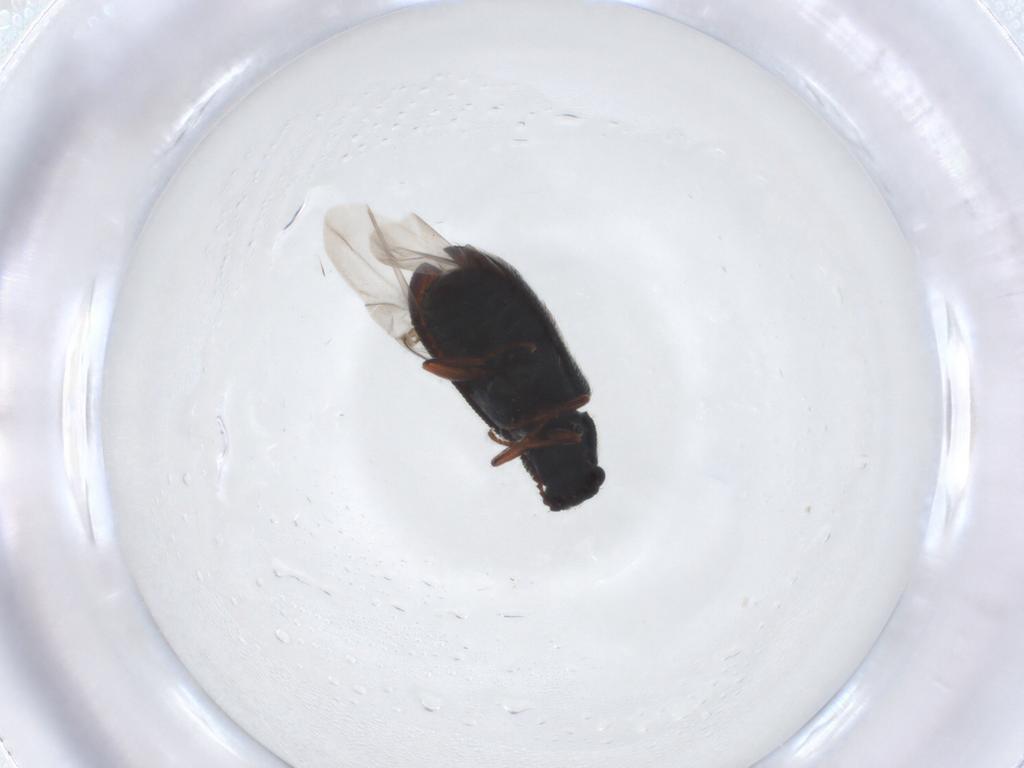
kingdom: Animalia
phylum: Arthropoda
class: Insecta
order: Coleoptera
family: Melyridae
